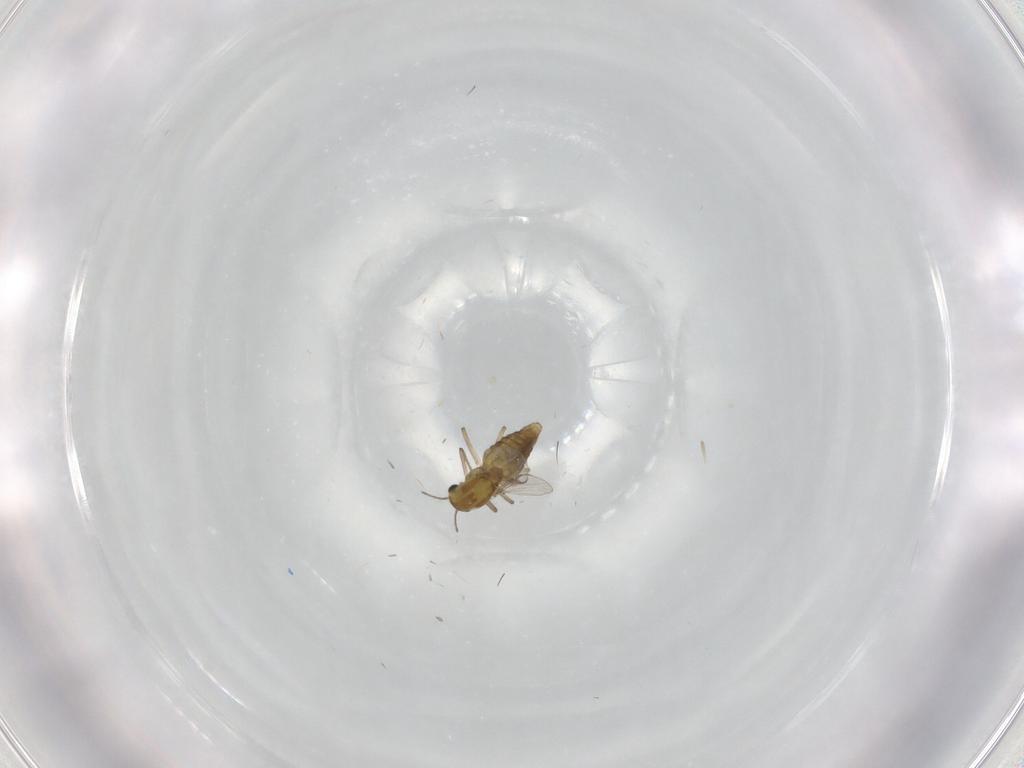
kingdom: Animalia
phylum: Arthropoda
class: Insecta
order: Diptera
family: Chironomidae
